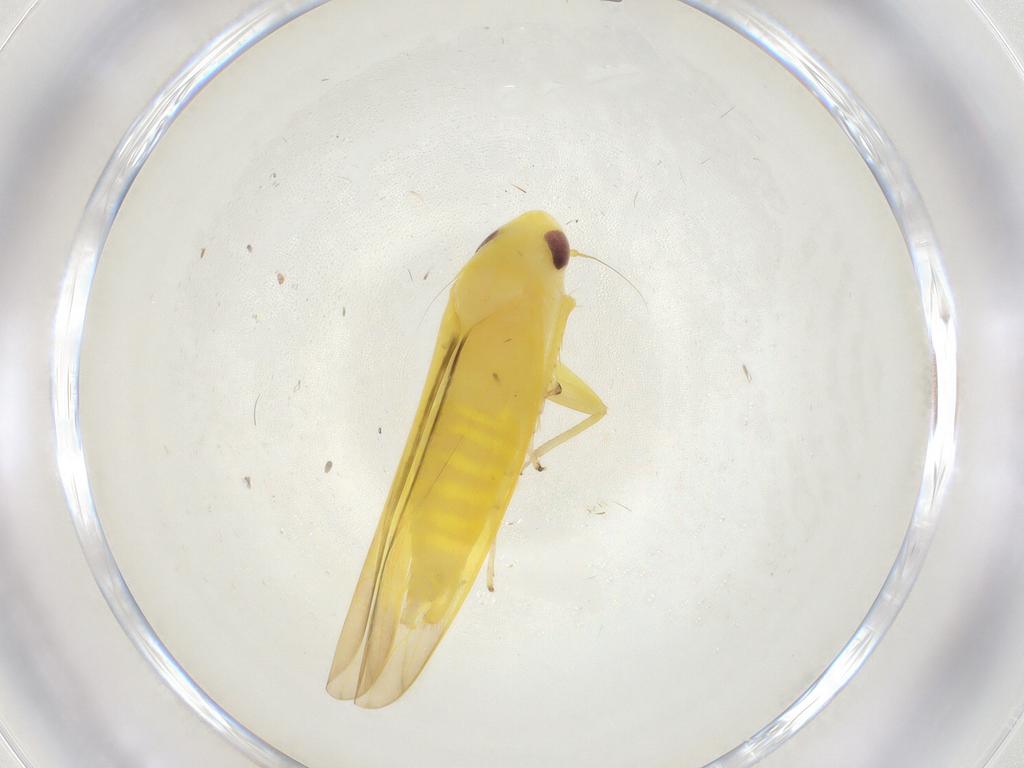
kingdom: Animalia
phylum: Arthropoda
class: Insecta
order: Hemiptera
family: Cicadellidae
